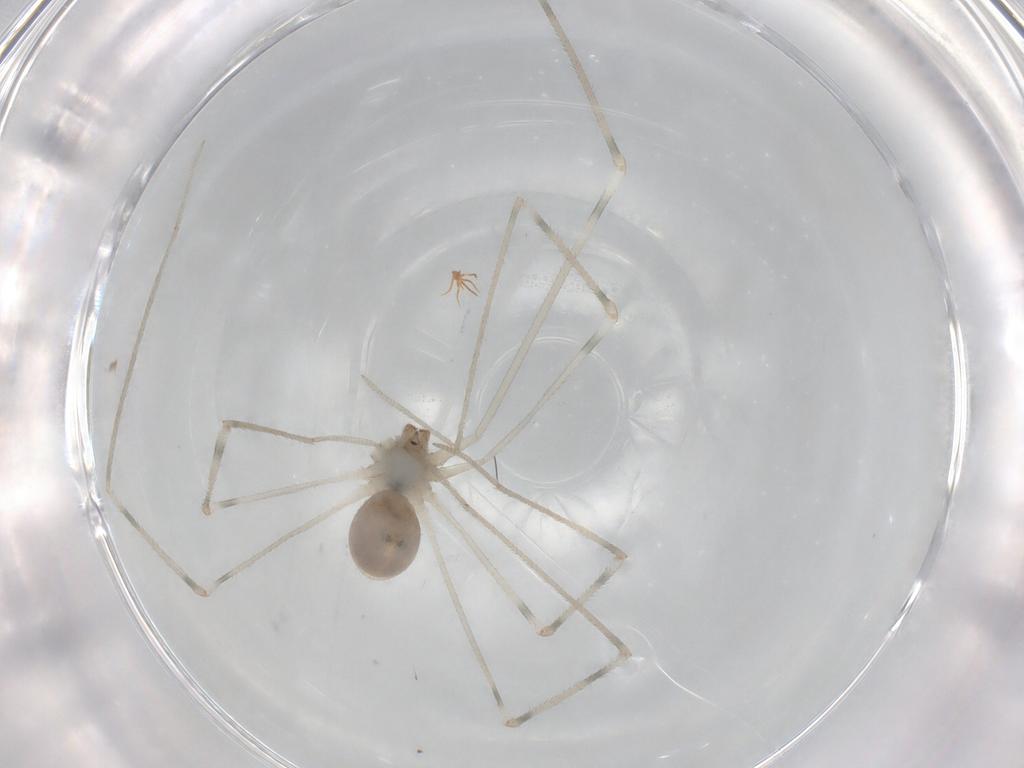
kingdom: Animalia
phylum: Arthropoda
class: Arachnida
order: Araneae
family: Pholcidae
